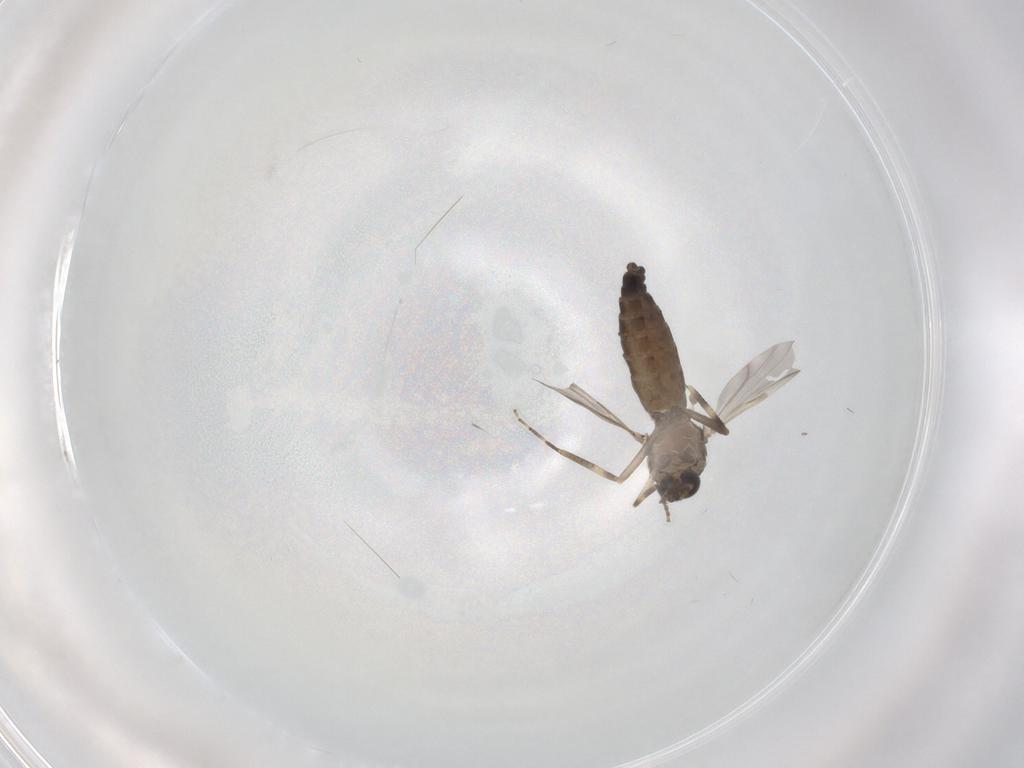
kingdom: Animalia
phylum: Arthropoda
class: Insecta
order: Diptera
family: Ceratopogonidae
